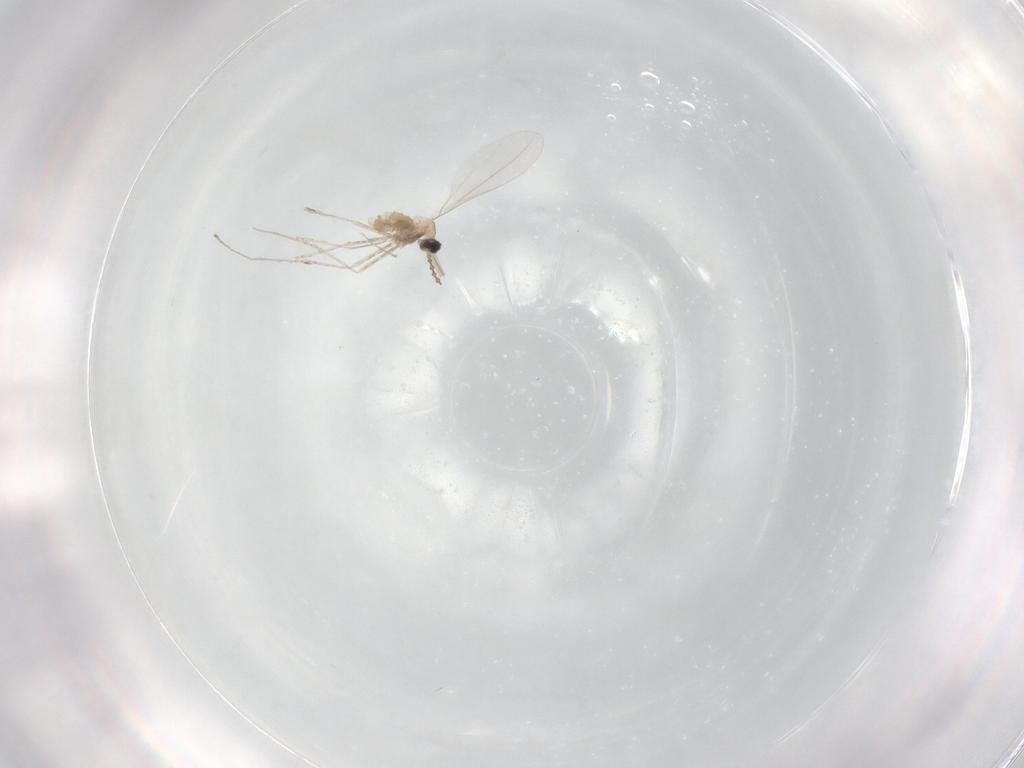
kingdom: Animalia
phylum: Arthropoda
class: Insecta
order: Diptera
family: Cecidomyiidae
